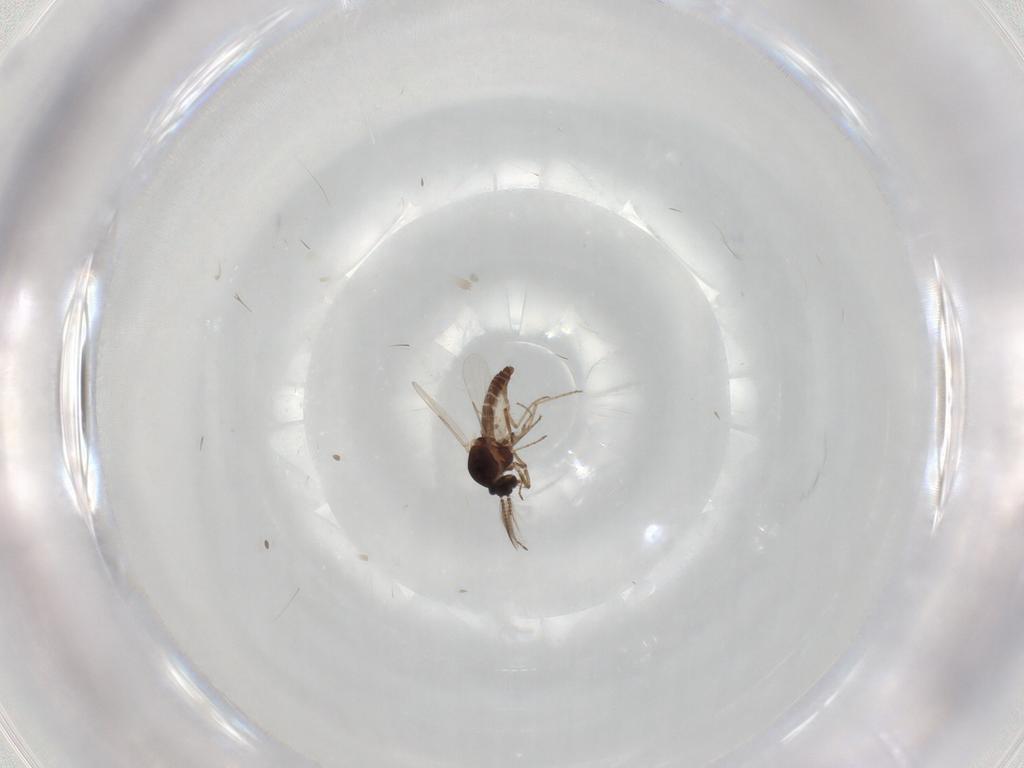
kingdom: Animalia
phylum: Arthropoda
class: Insecta
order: Diptera
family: Ceratopogonidae
